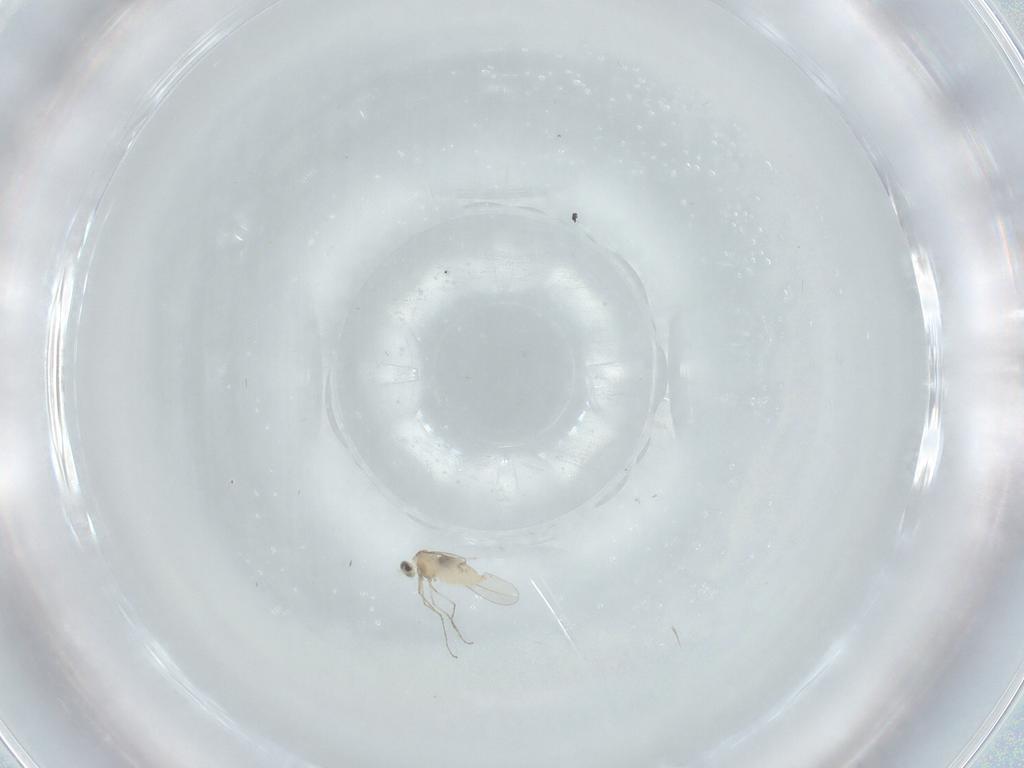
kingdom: Animalia
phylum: Arthropoda
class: Insecta
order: Diptera
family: Cecidomyiidae
